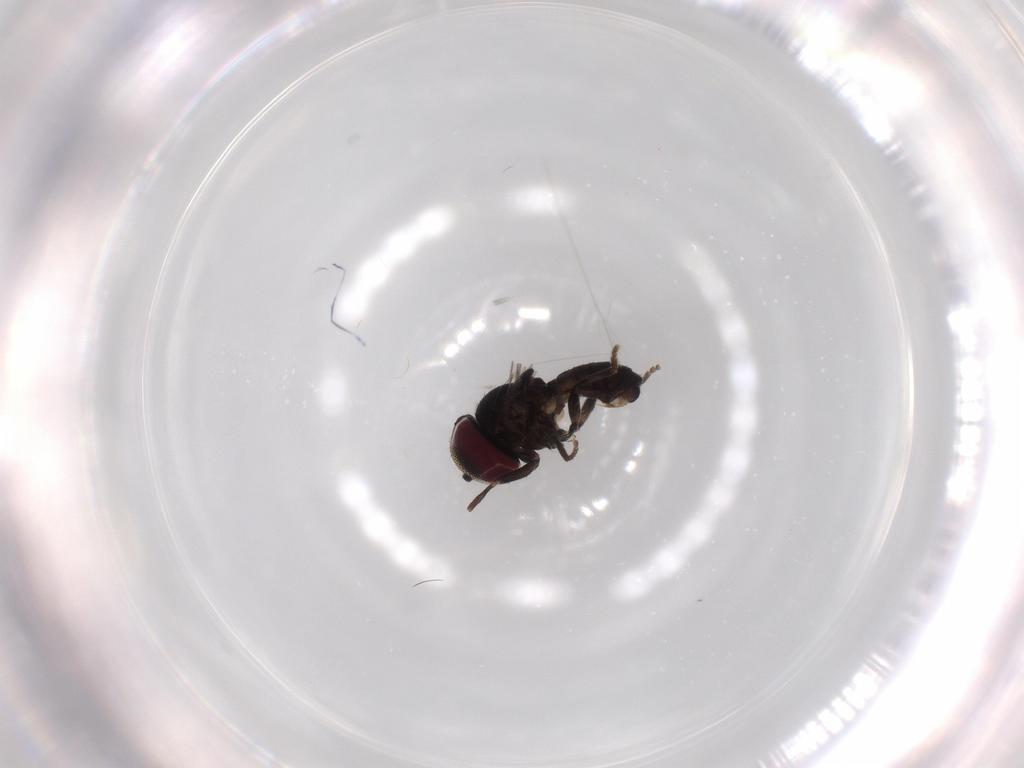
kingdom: Animalia
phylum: Arthropoda
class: Insecta
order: Diptera
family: Pipunculidae
